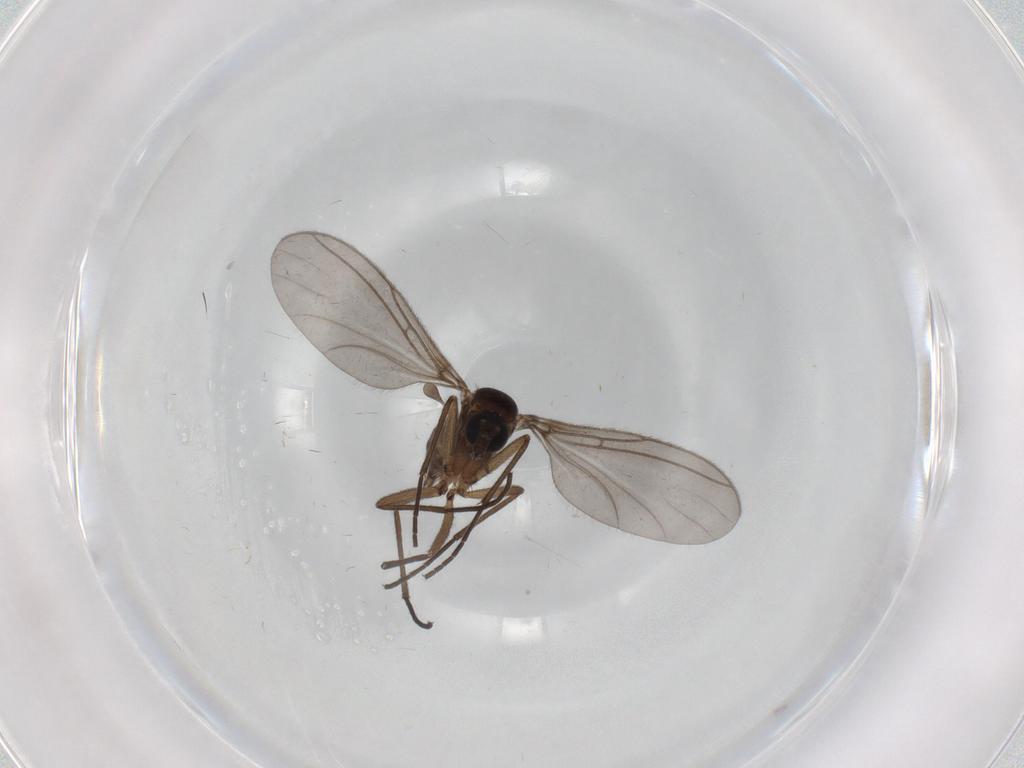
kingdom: Animalia
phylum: Arthropoda
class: Insecta
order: Diptera
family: Sciaridae
